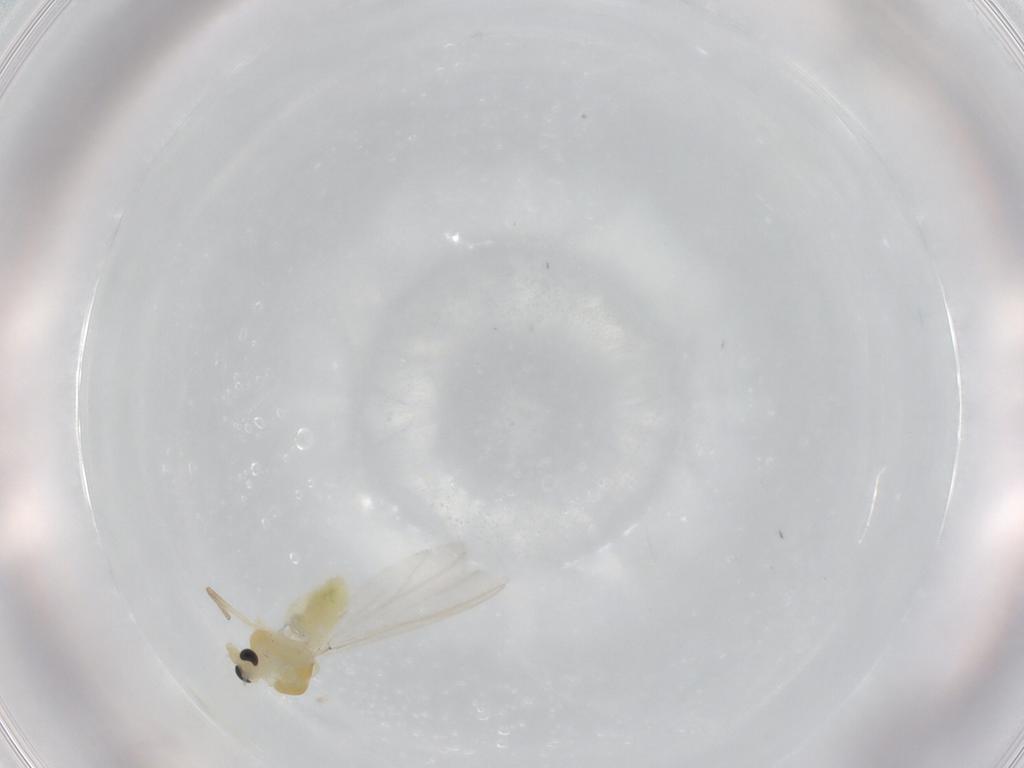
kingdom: Animalia
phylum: Arthropoda
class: Insecta
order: Diptera
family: Chironomidae
